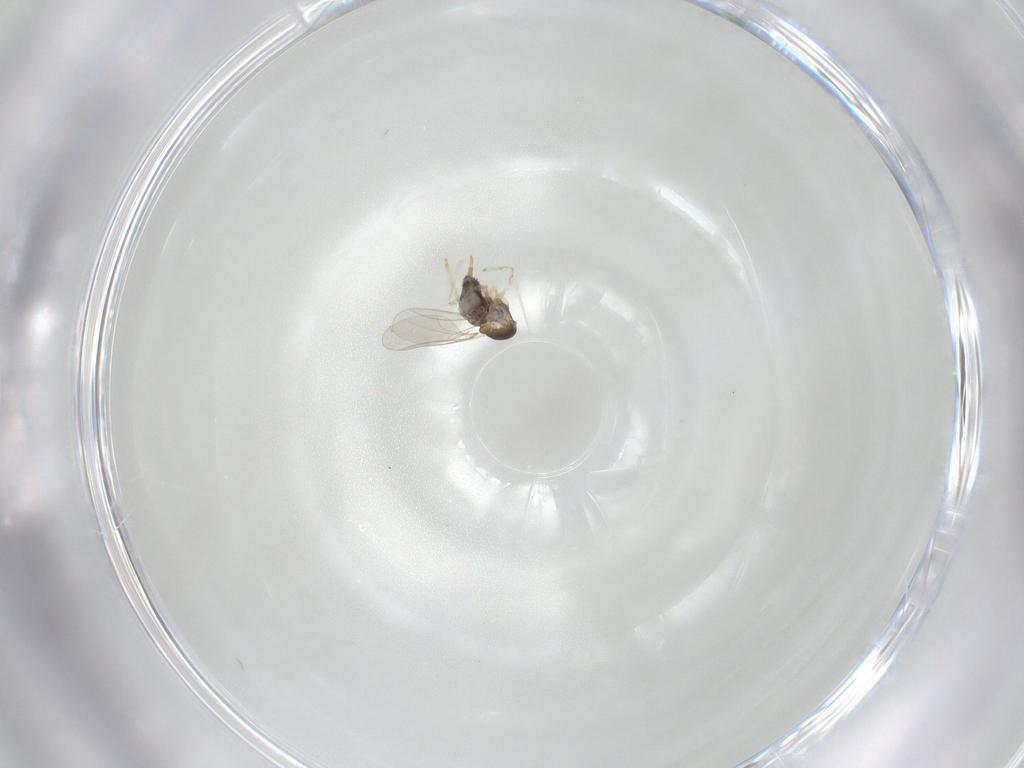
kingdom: Animalia
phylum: Arthropoda
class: Insecta
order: Diptera
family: Cecidomyiidae
